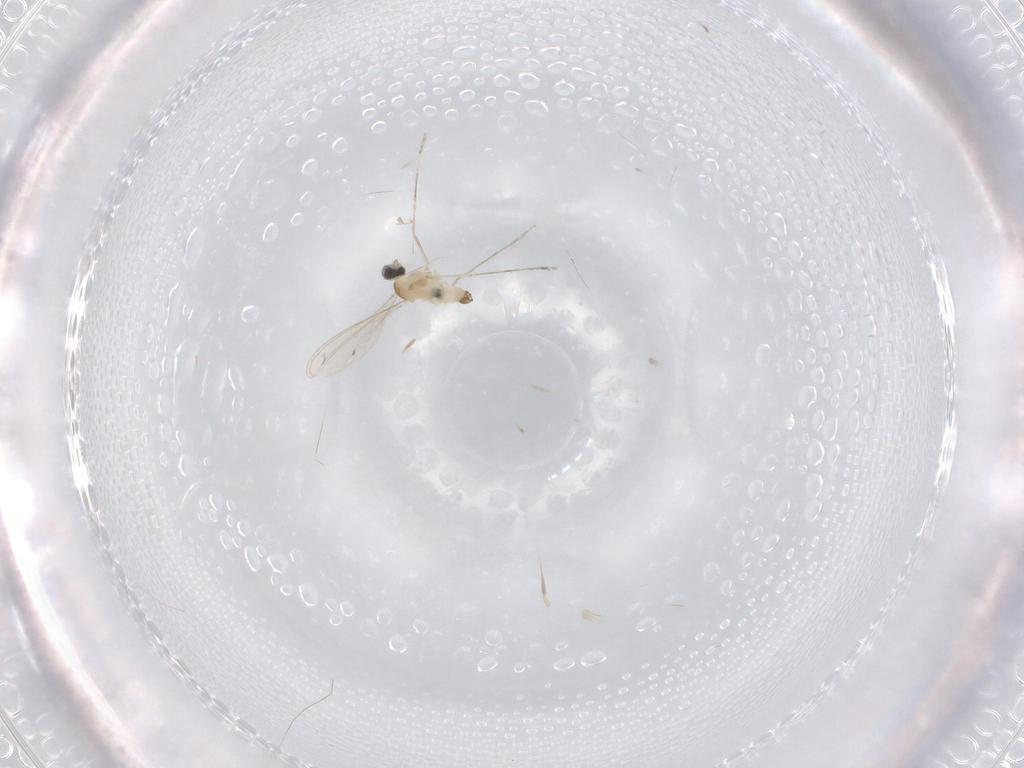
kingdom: Animalia
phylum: Arthropoda
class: Insecta
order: Diptera
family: Cecidomyiidae
